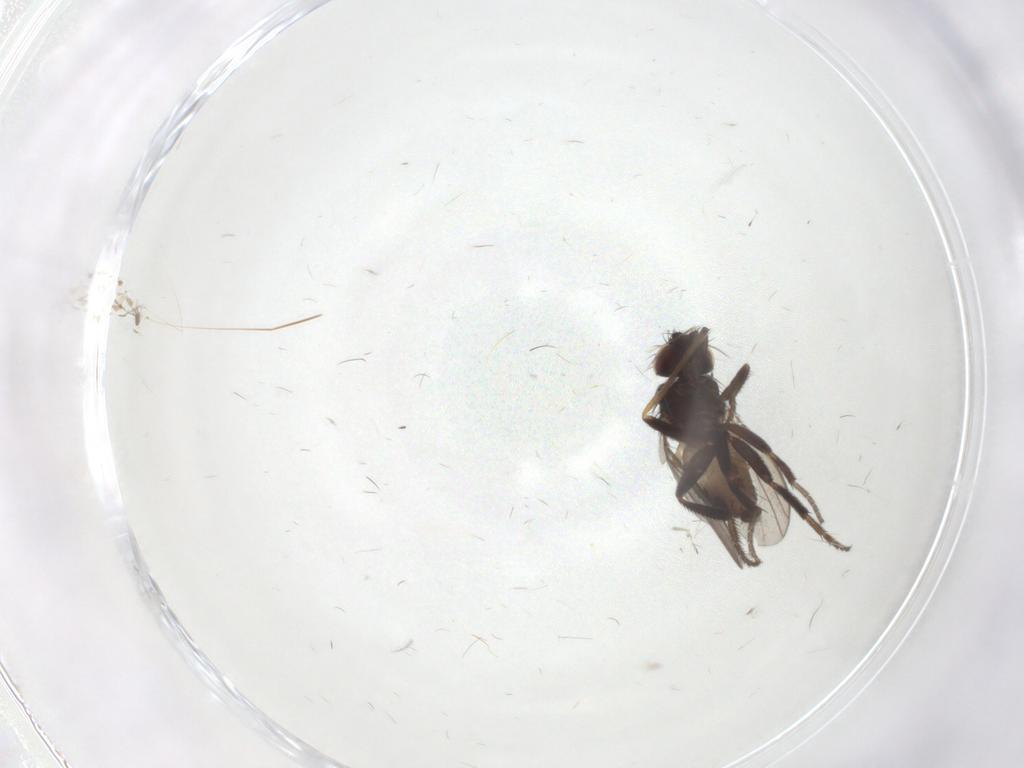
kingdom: Animalia
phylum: Arthropoda
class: Insecta
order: Diptera
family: Milichiidae
